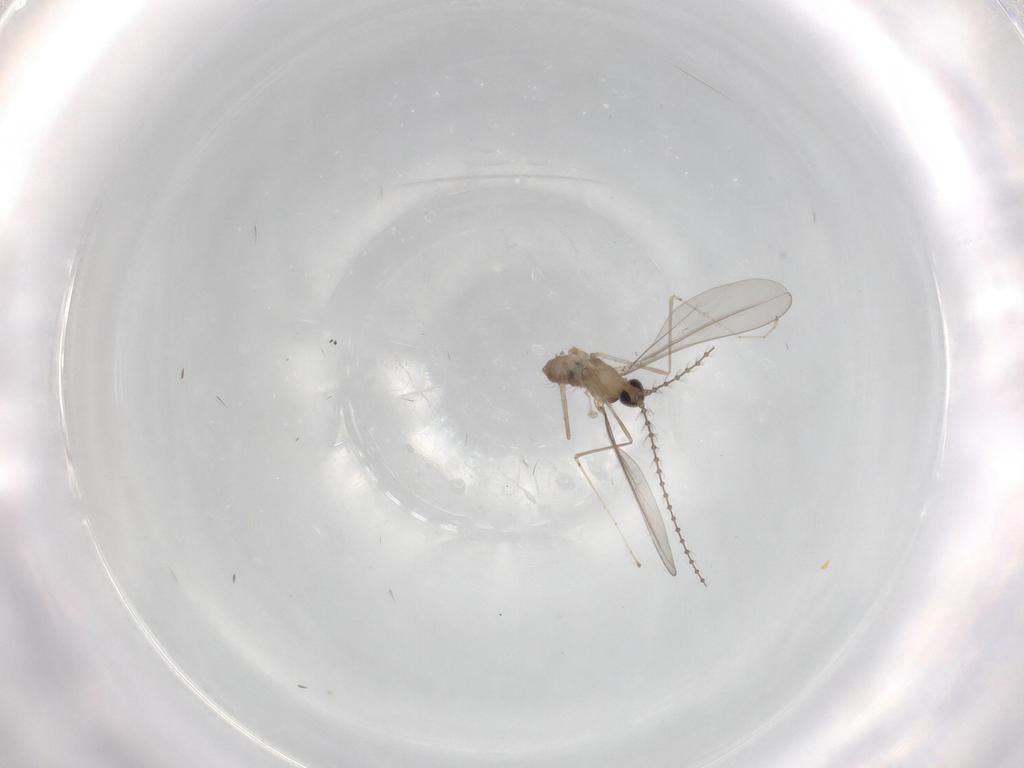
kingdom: Animalia
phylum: Arthropoda
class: Insecta
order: Diptera
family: Cecidomyiidae
